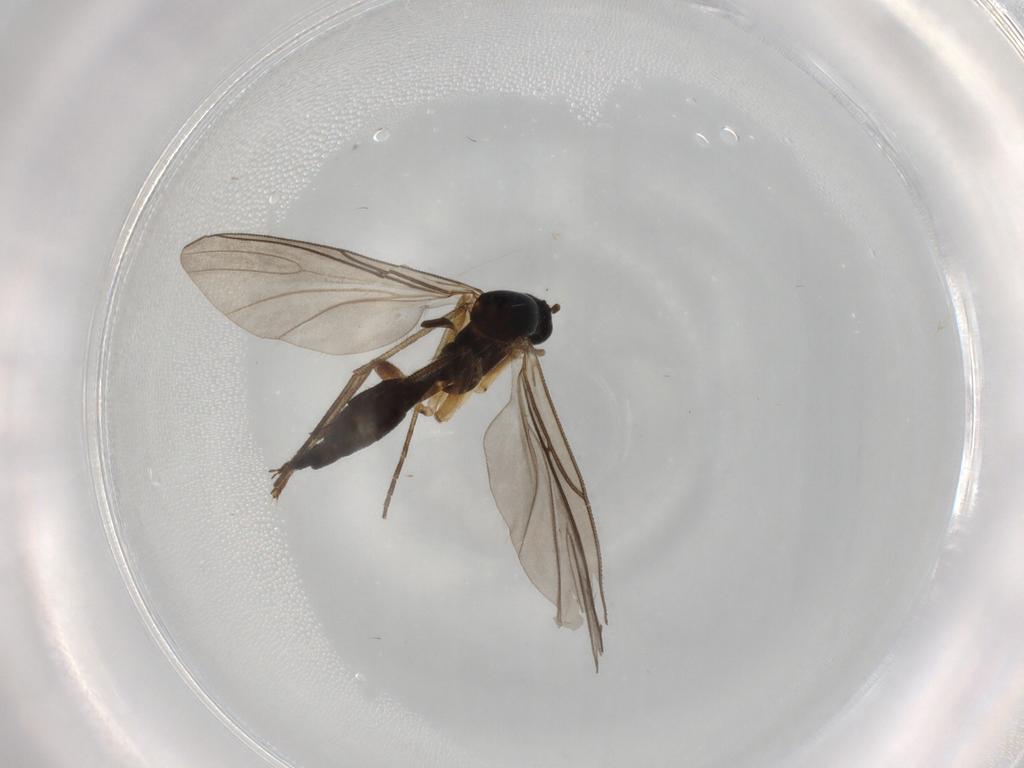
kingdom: Animalia
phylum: Arthropoda
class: Insecta
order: Diptera
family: Sciaridae
